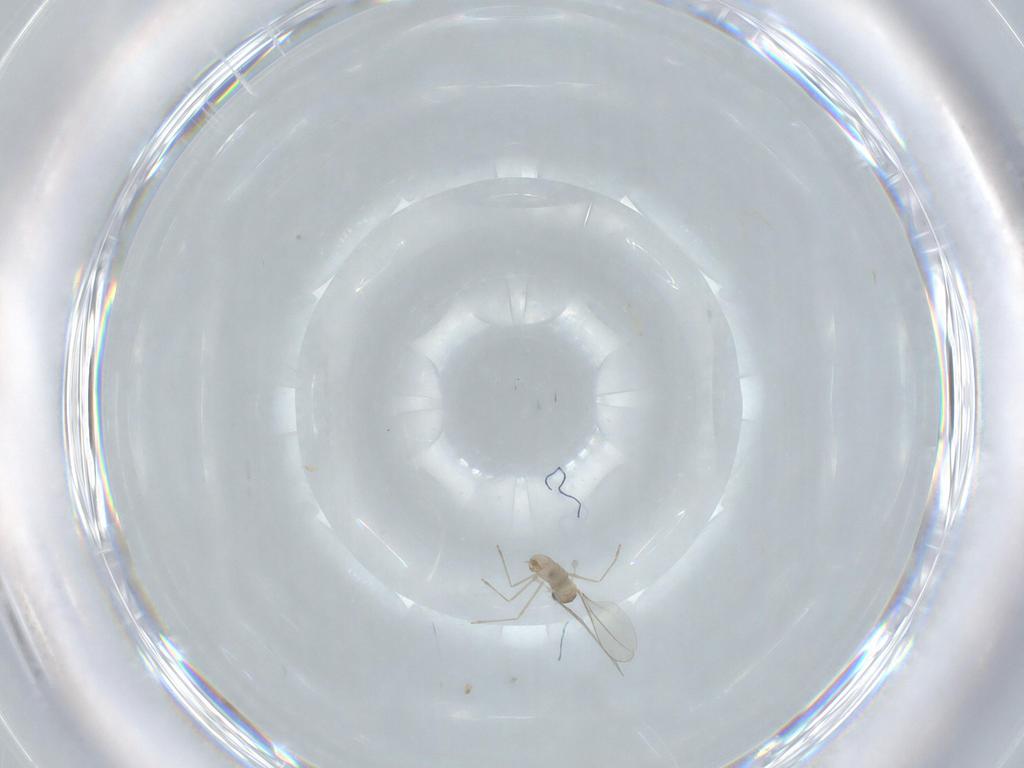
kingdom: Animalia
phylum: Arthropoda
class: Insecta
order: Diptera
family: Cecidomyiidae
